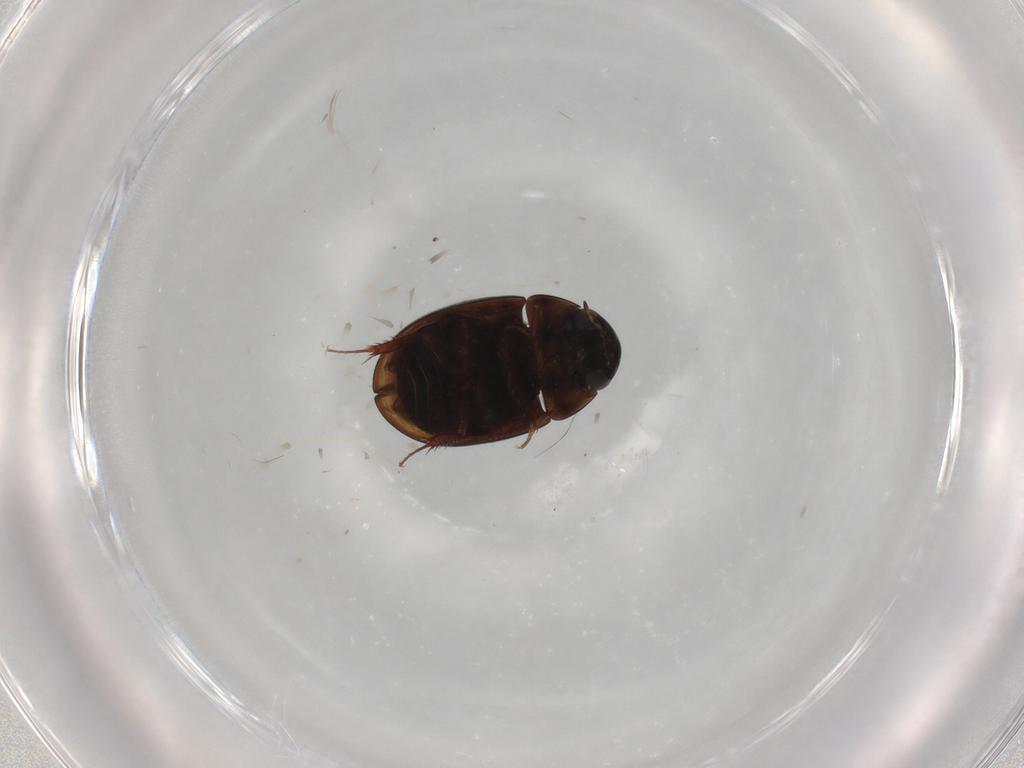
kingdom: Animalia
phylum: Arthropoda
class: Insecta
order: Coleoptera
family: Staphylinidae
